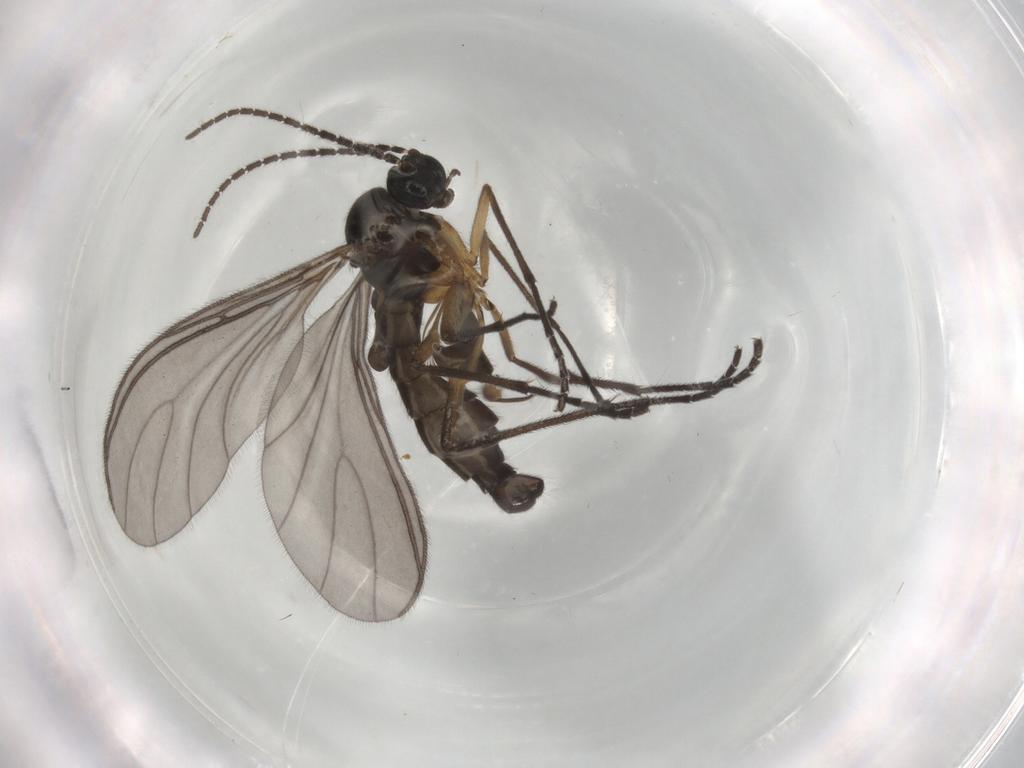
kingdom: Animalia
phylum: Arthropoda
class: Insecta
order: Diptera
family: Sciaridae
